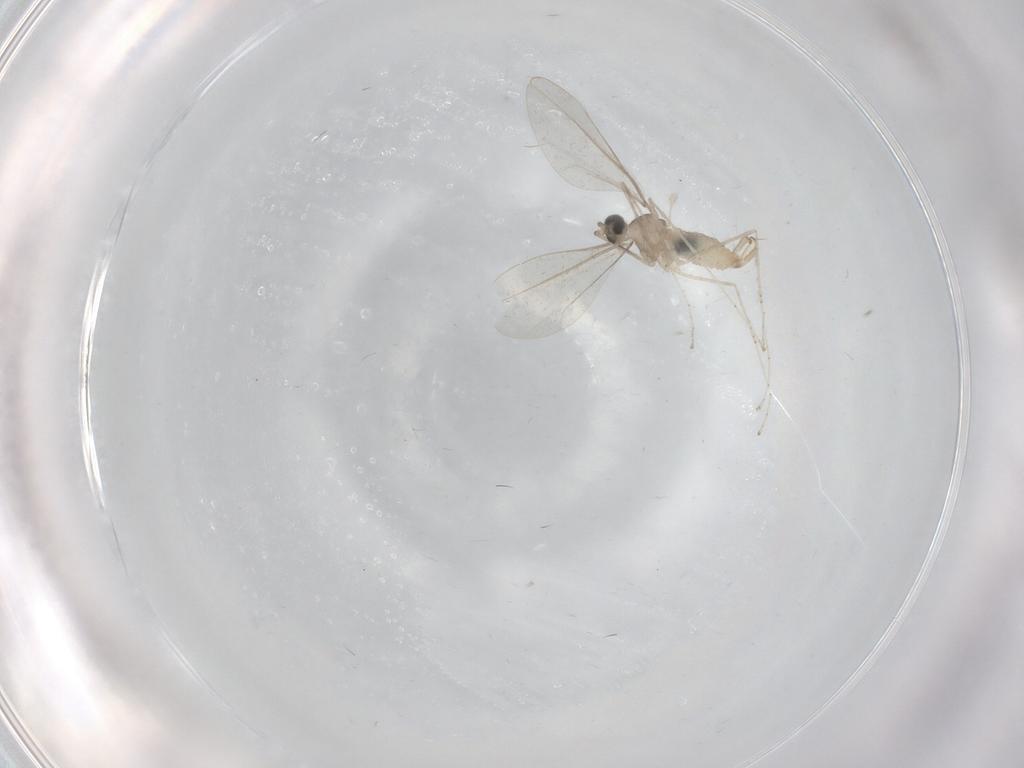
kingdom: Animalia
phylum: Arthropoda
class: Insecta
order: Diptera
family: Cecidomyiidae
